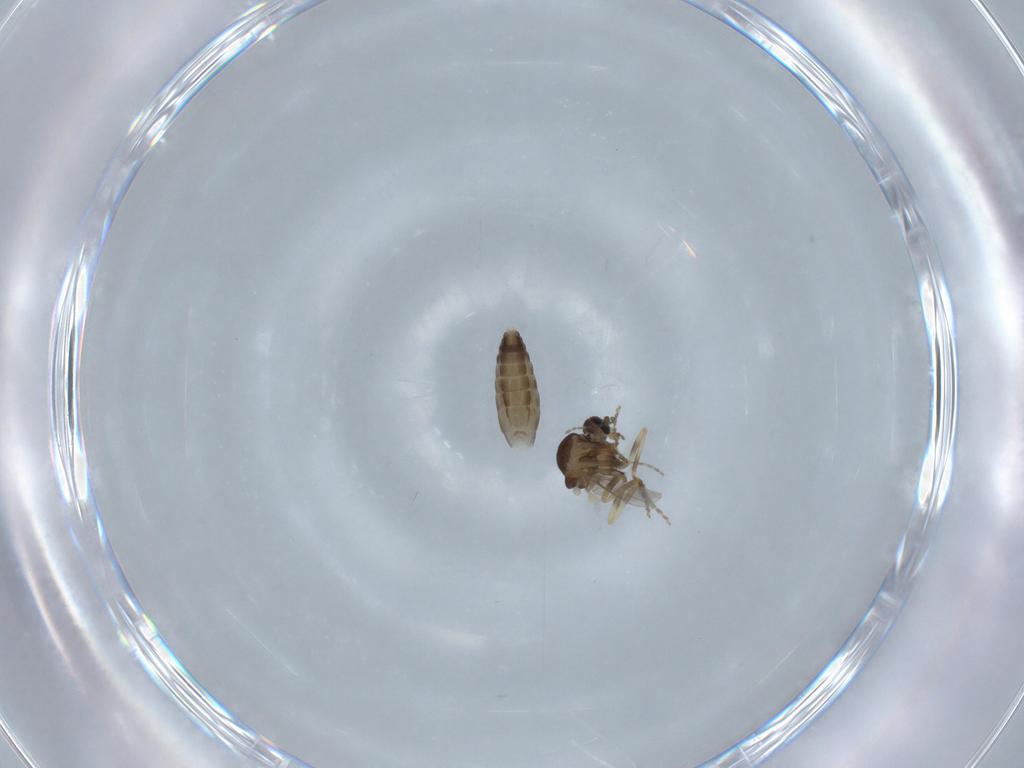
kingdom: Animalia
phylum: Arthropoda
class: Insecta
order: Diptera
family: Ceratopogonidae
